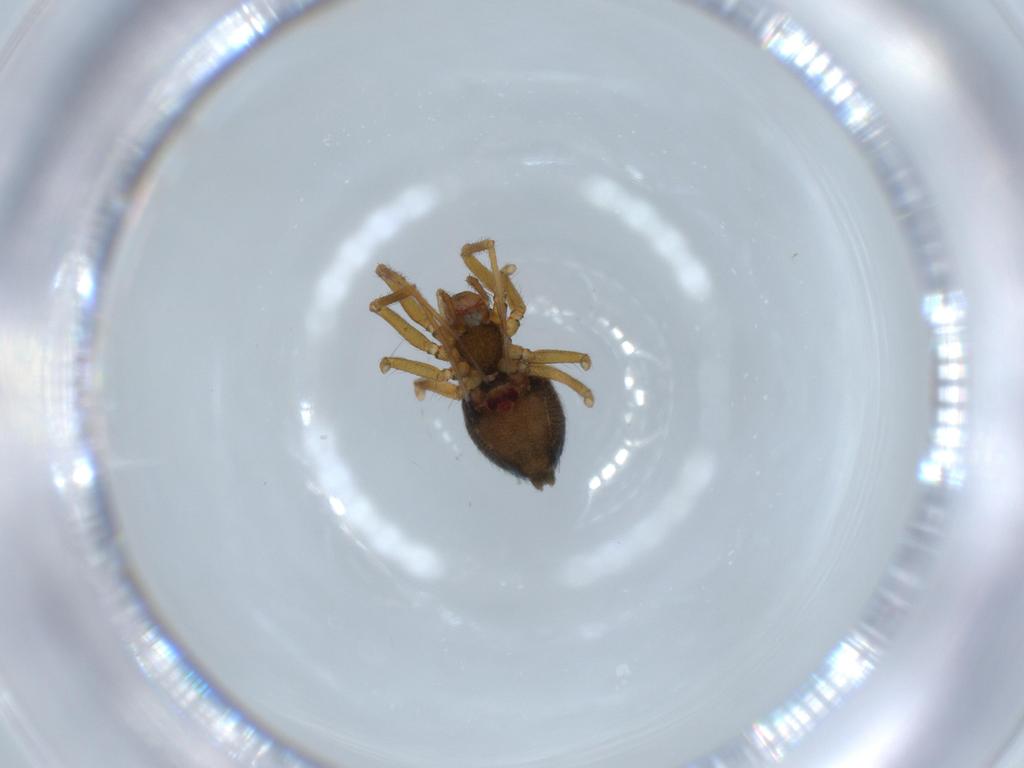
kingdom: Animalia
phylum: Arthropoda
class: Arachnida
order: Araneae
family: Linyphiidae
